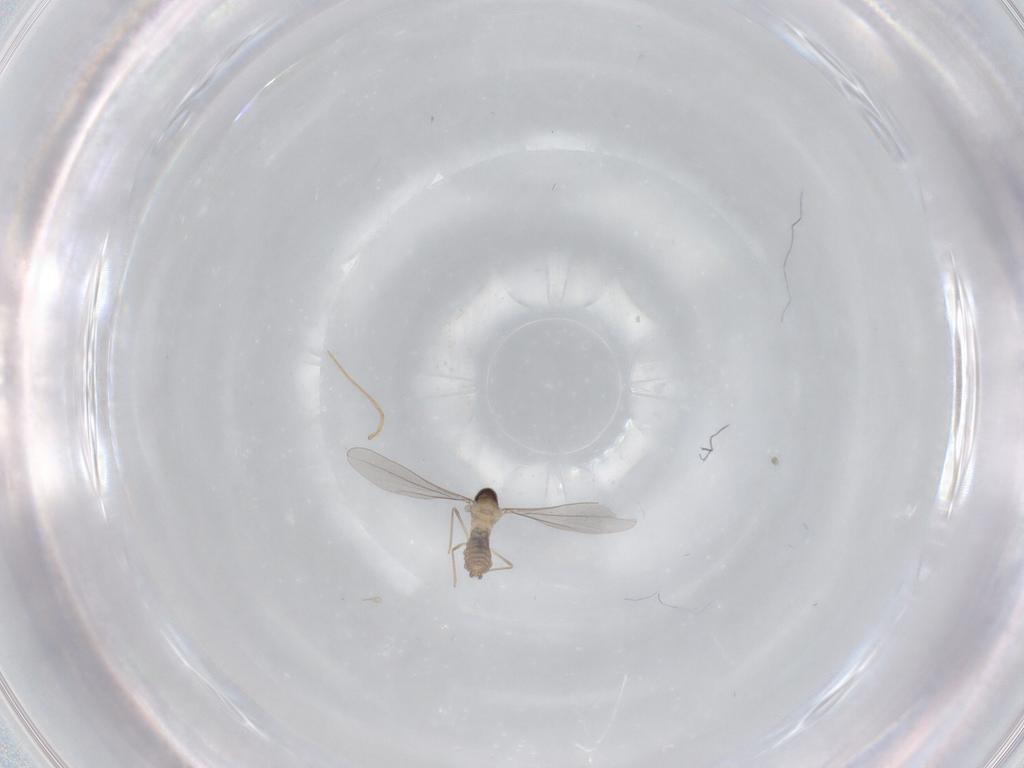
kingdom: Animalia
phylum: Arthropoda
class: Insecta
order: Diptera
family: Cecidomyiidae
